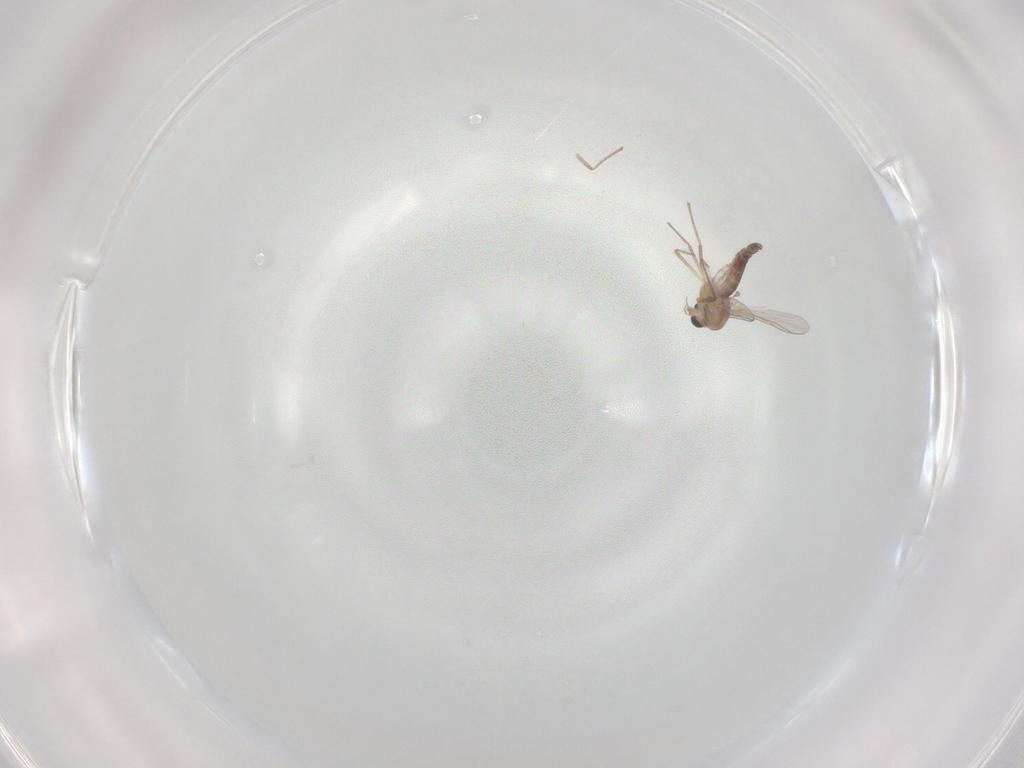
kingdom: Animalia
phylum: Arthropoda
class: Insecta
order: Diptera
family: Chironomidae
